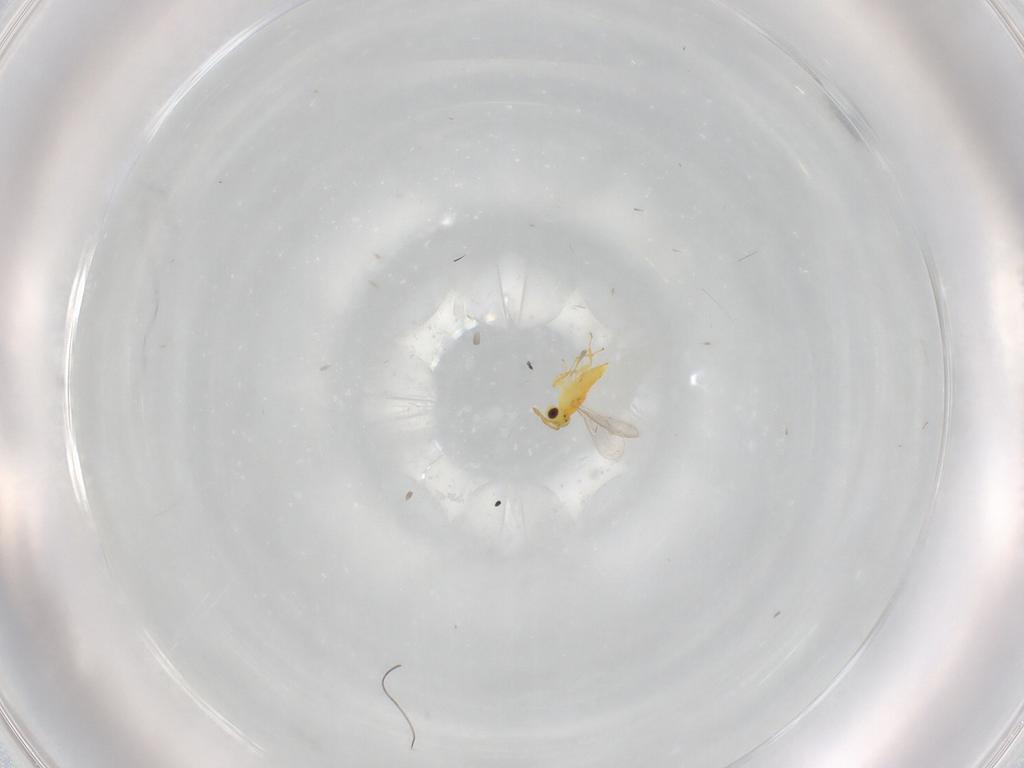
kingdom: Animalia
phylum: Arthropoda
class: Insecta
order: Hymenoptera
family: Aphelinidae
